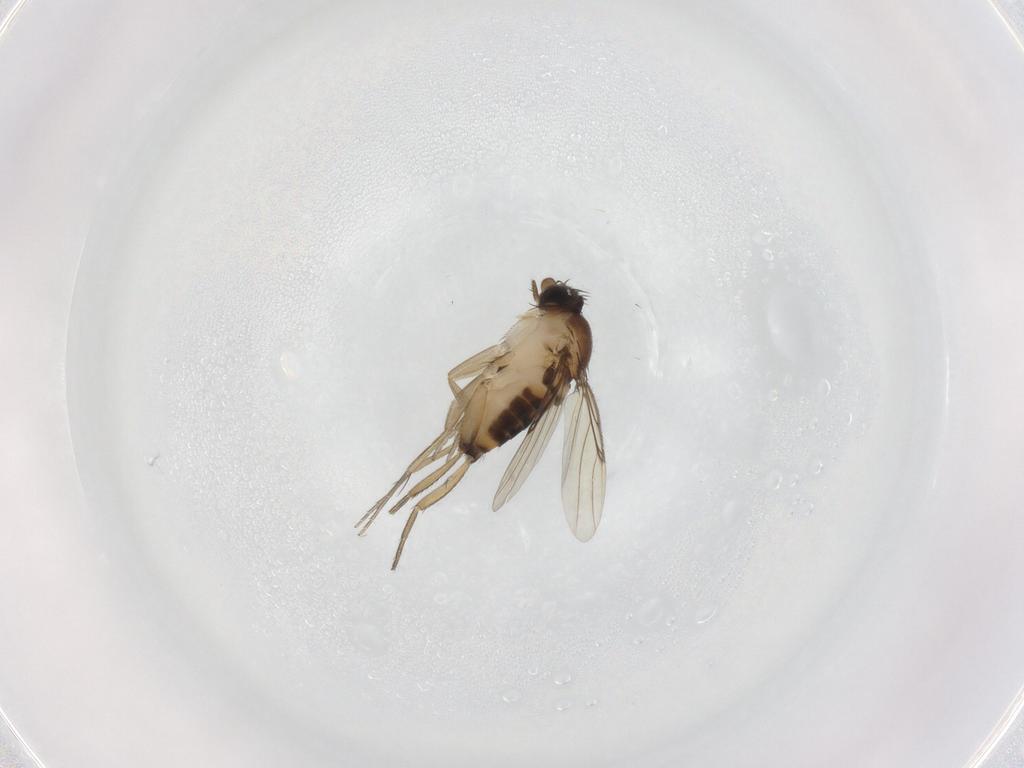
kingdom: Animalia
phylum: Arthropoda
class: Insecta
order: Diptera
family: Phoridae
